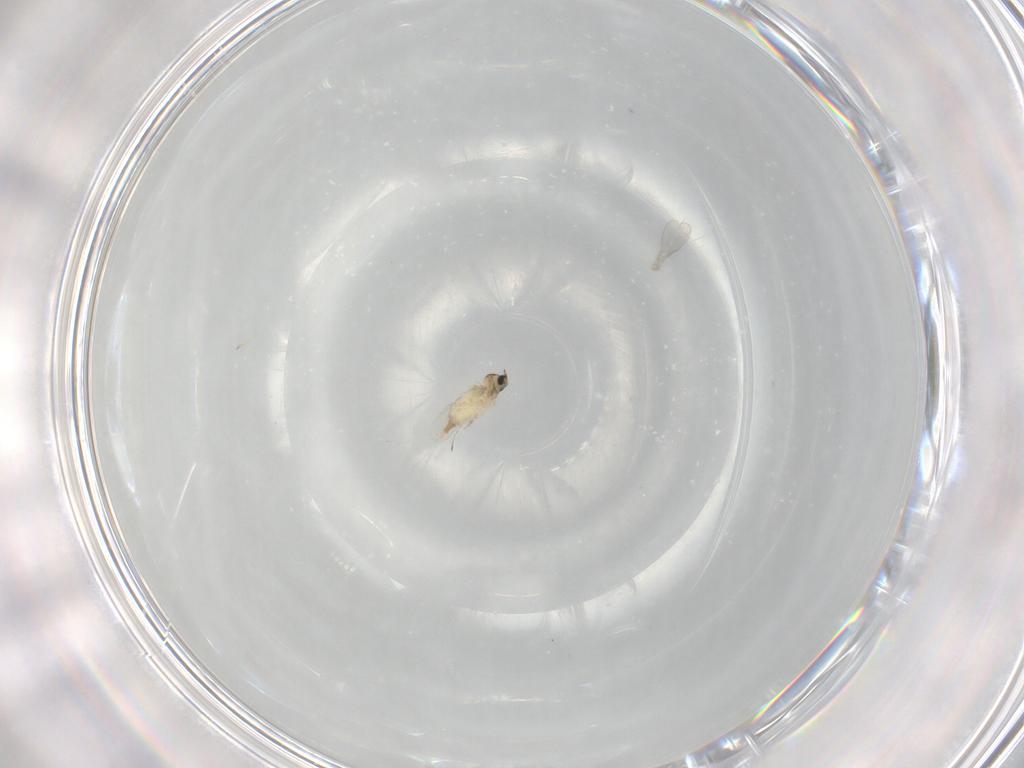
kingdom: Animalia
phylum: Arthropoda
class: Insecta
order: Diptera
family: Cecidomyiidae
